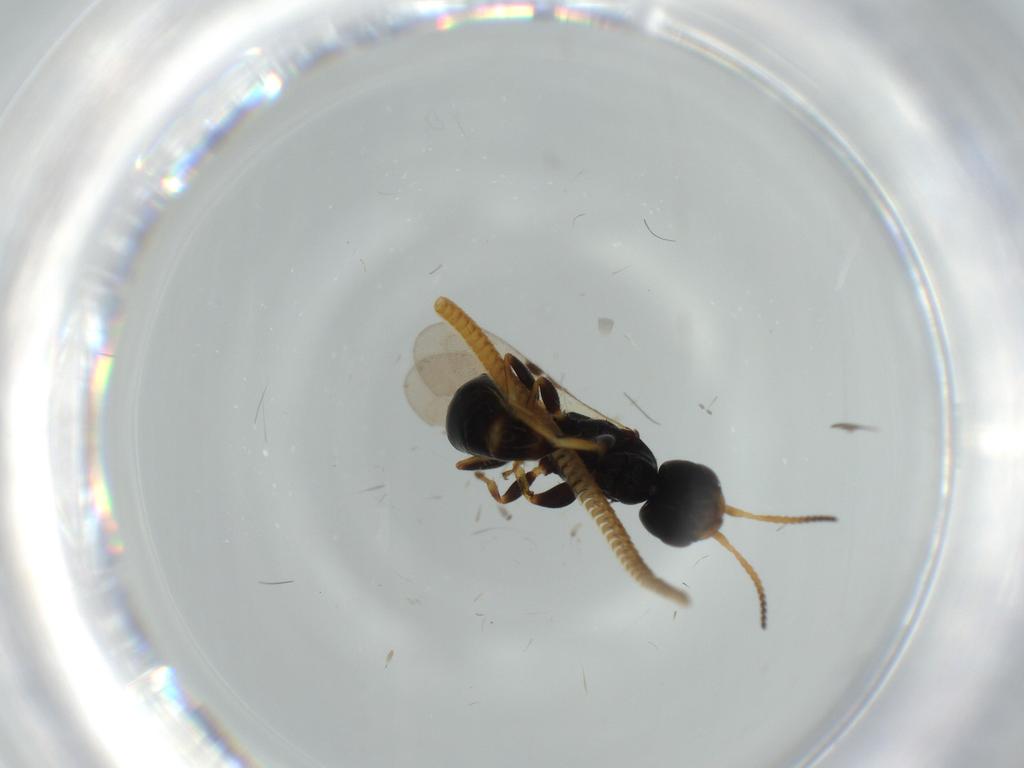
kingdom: Animalia
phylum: Arthropoda
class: Insecta
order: Hymenoptera
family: Bethylidae
